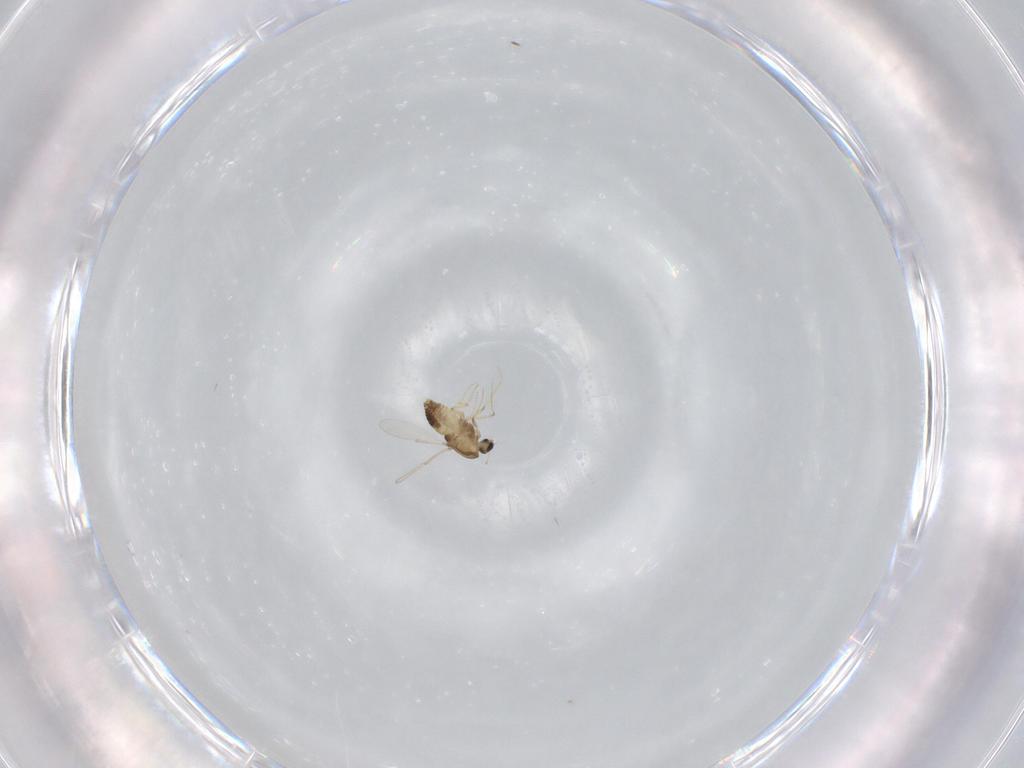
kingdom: Animalia
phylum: Arthropoda
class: Insecta
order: Diptera
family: Chironomidae
